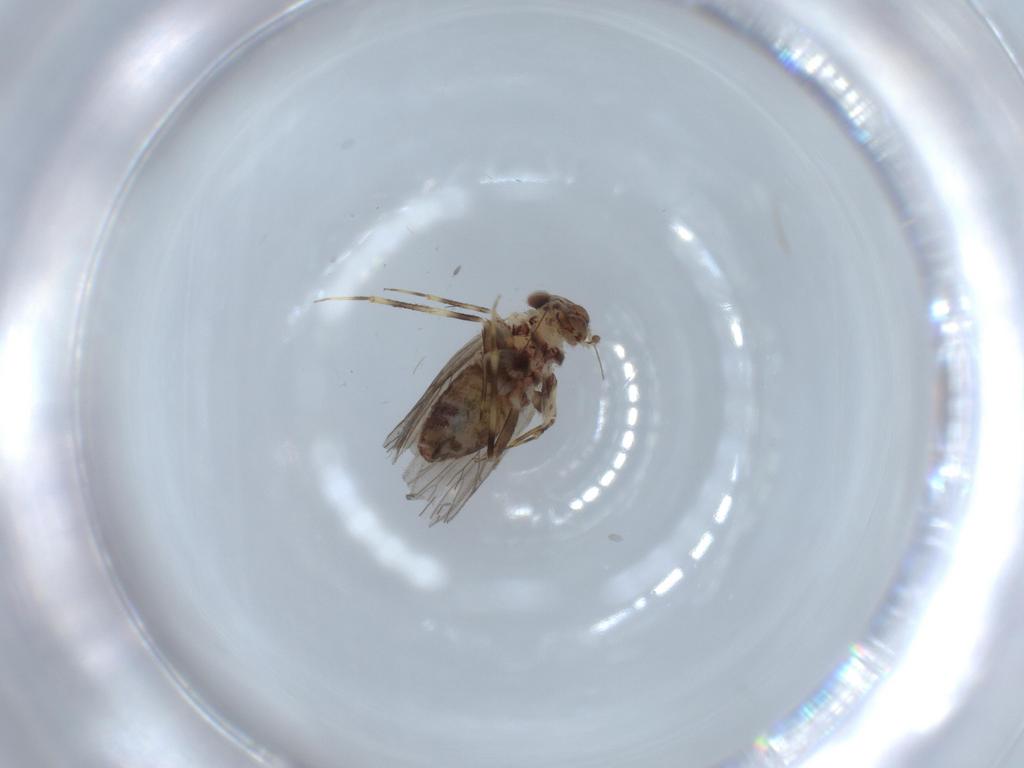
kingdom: Animalia
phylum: Arthropoda
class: Insecta
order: Psocodea
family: Lepidopsocidae
